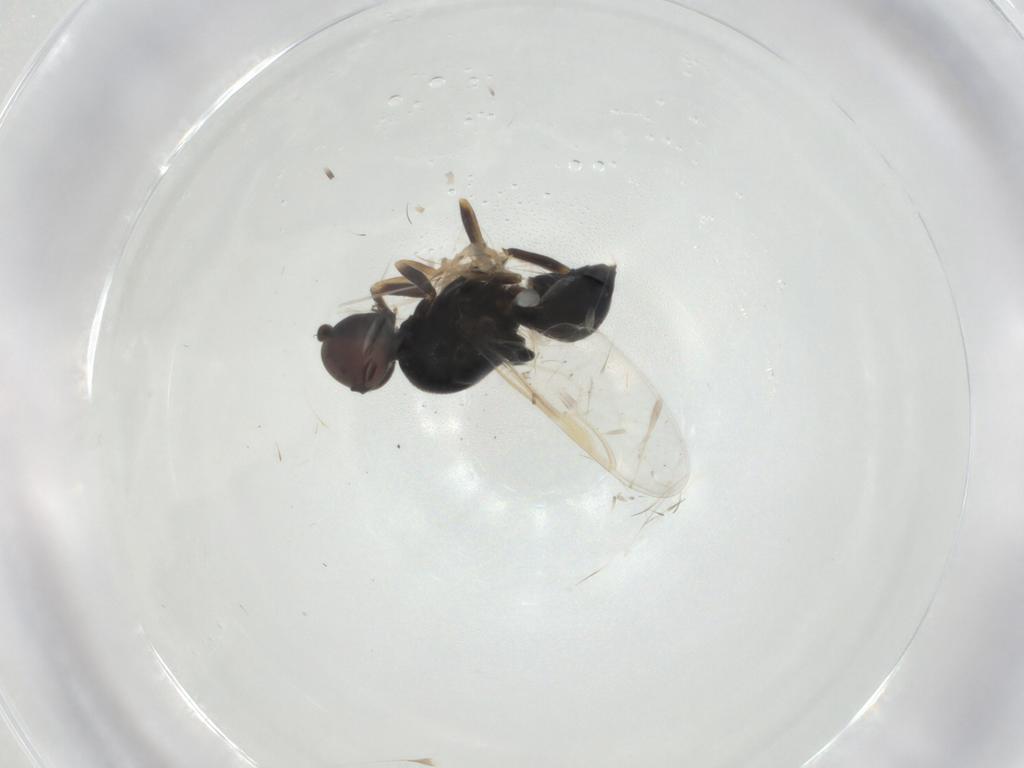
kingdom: Animalia
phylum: Arthropoda
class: Insecta
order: Diptera
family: Stratiomyidae
